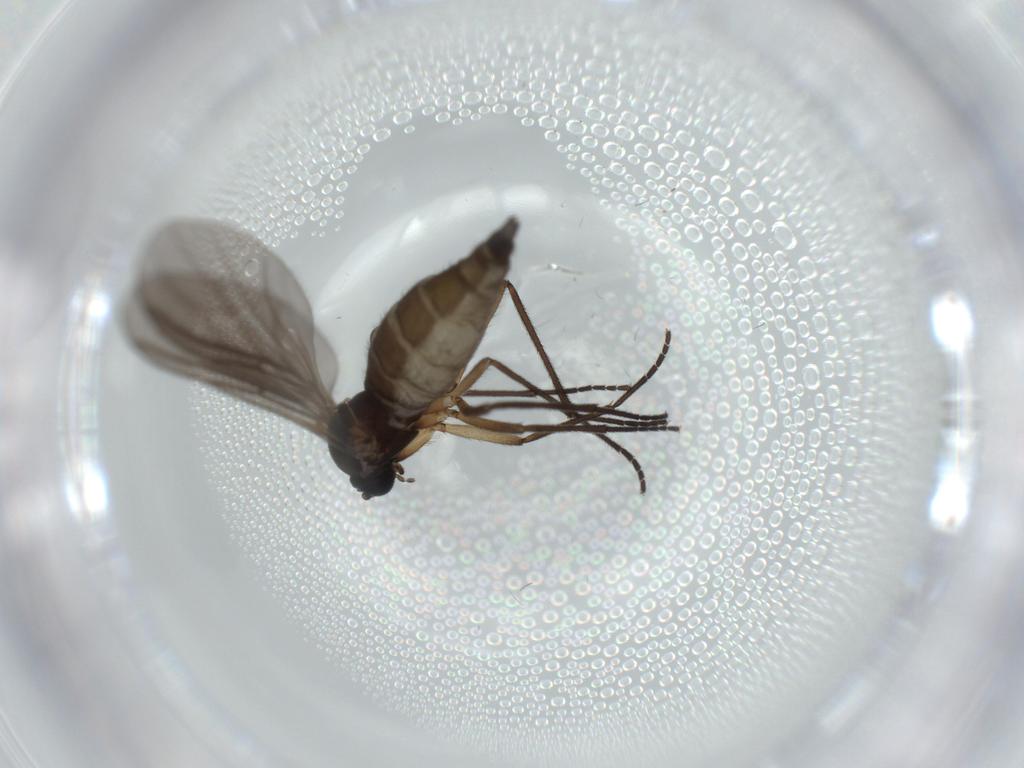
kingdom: Animalia
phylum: Arthropoda
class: Insecta
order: Diptera
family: Sciaridae
